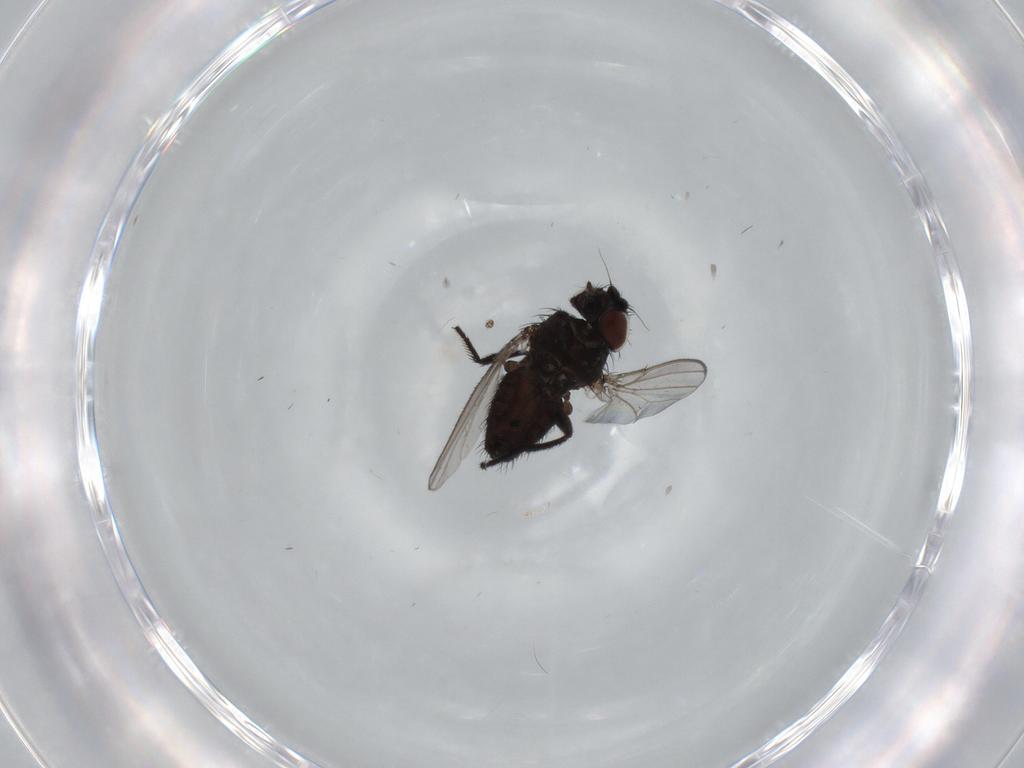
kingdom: Animalia
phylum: Arthropoda
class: Insecta
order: Diptera
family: Milichiidae
